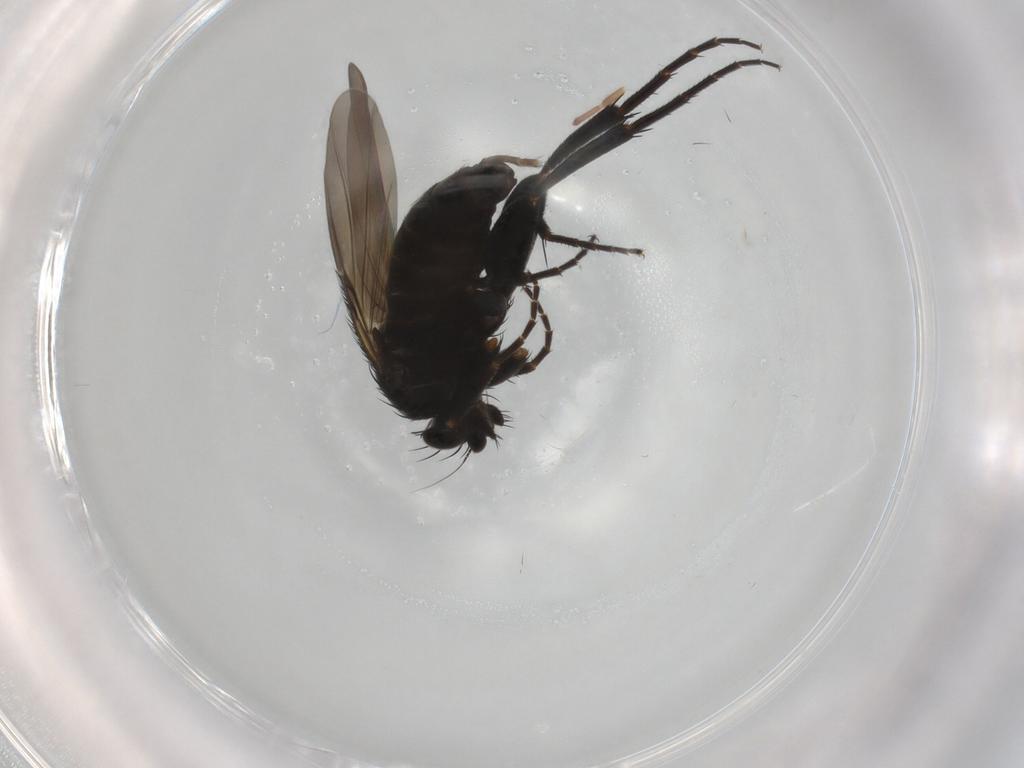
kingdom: Animalia
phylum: Arthropoda
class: Insecta
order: Diptera
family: Phoridae
